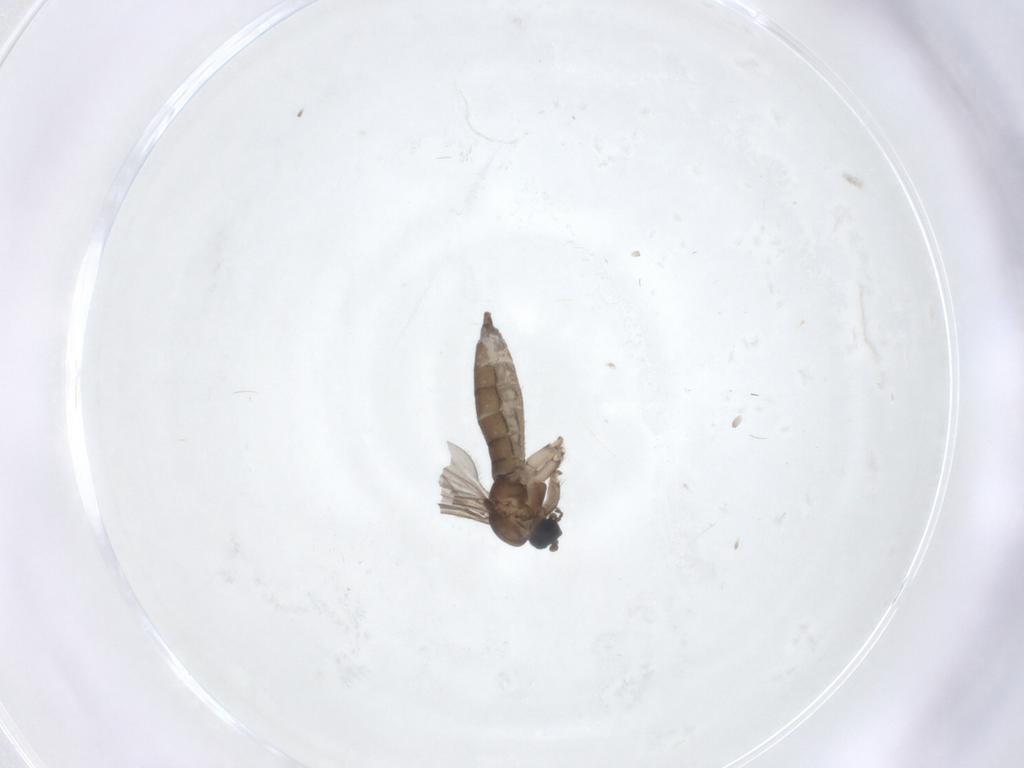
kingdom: Animalia
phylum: Arthropoda
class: Insecta
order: Diptera
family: Sciaridae
